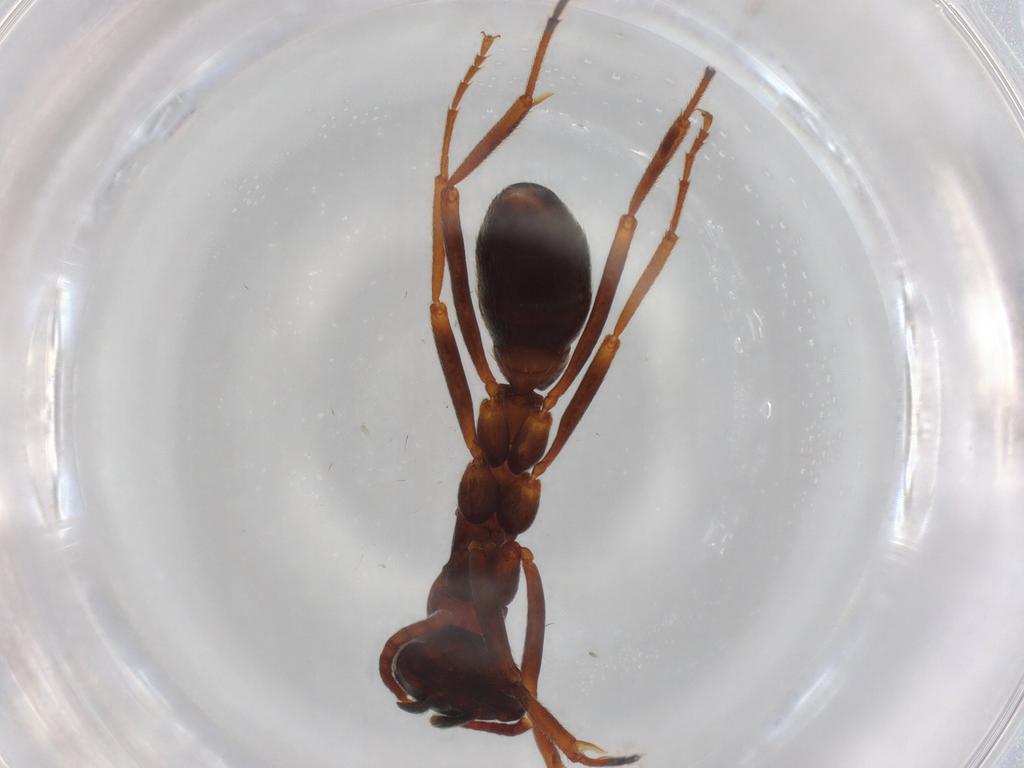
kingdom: Animalia
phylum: Arthropoda
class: Insecta
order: Hymenoptera
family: Formicidae
